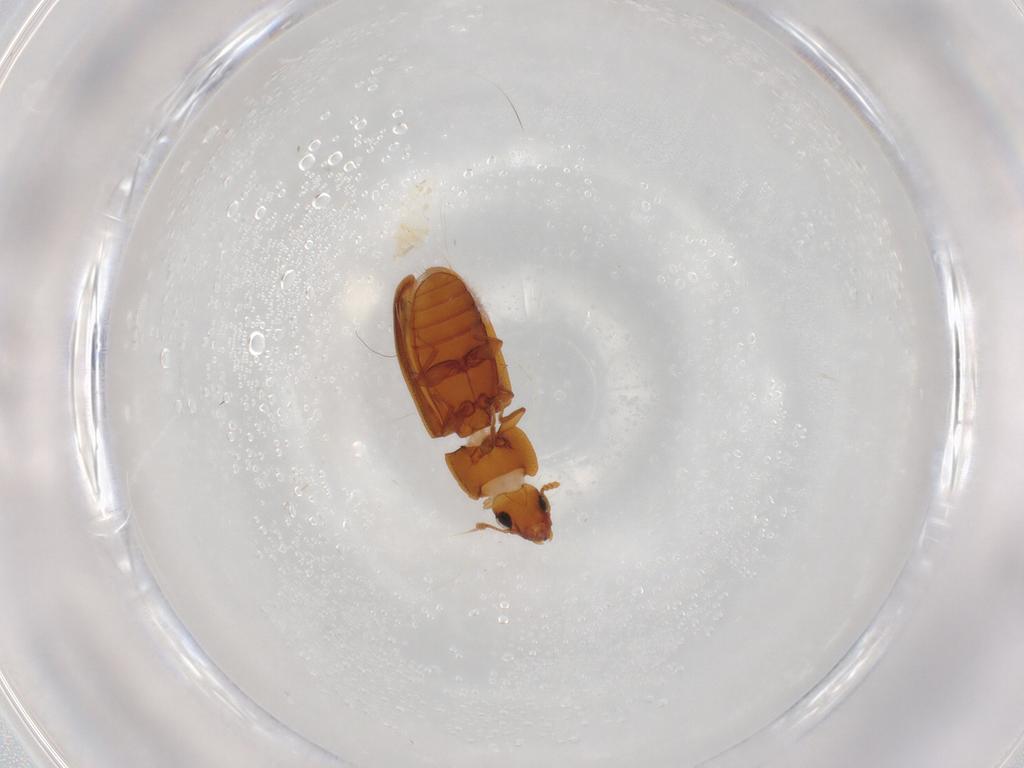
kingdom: Animalia
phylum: Arthropoda
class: Insecta
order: Coleoptera
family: Laemophloeidae
